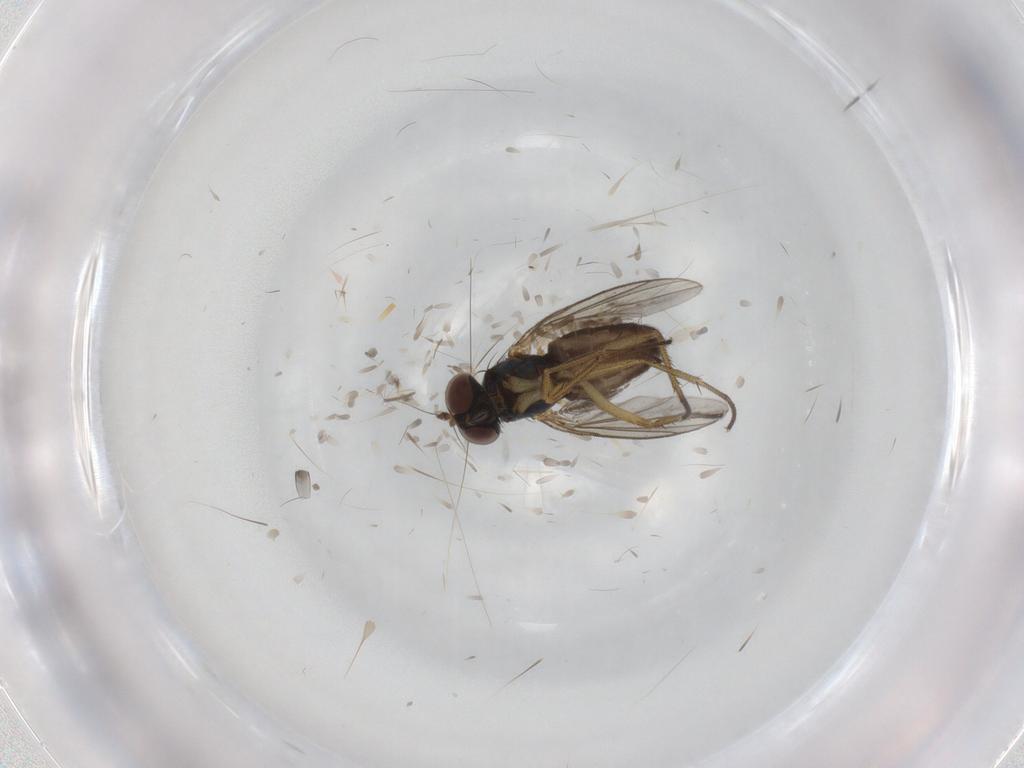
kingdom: Animalia
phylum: Arthropoda
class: Insecta
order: Diptera
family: Ceratopogonidae
